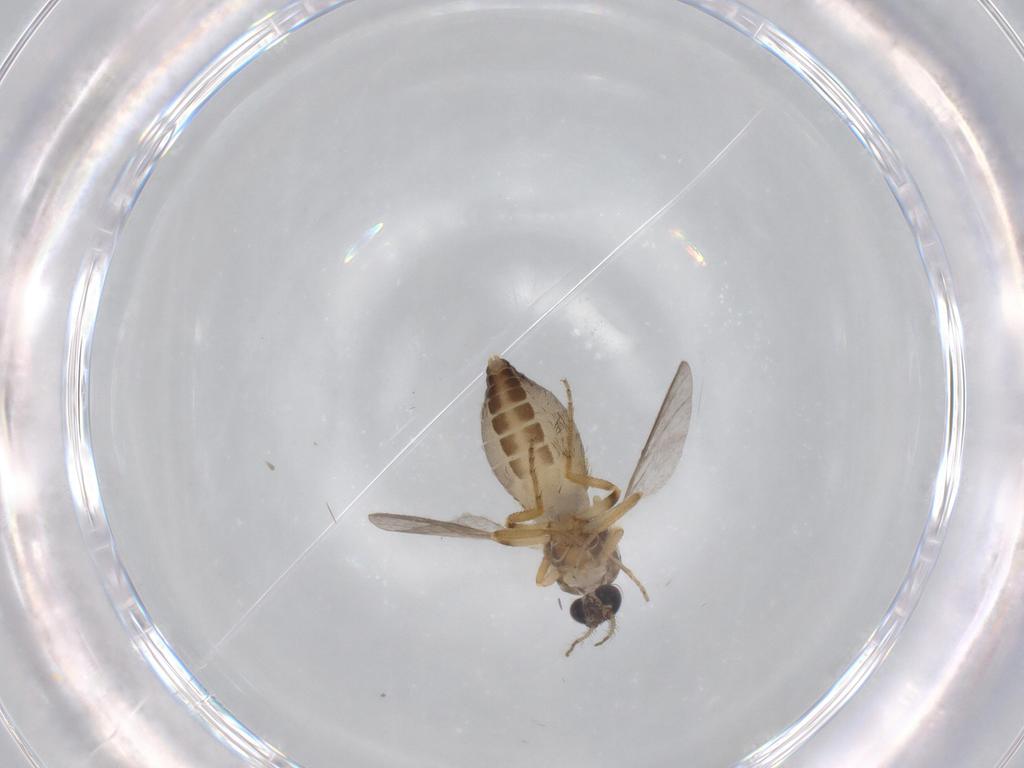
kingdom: Animalia
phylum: Arthropoda
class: Insecta
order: Diptera
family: Ceratopogonidae
